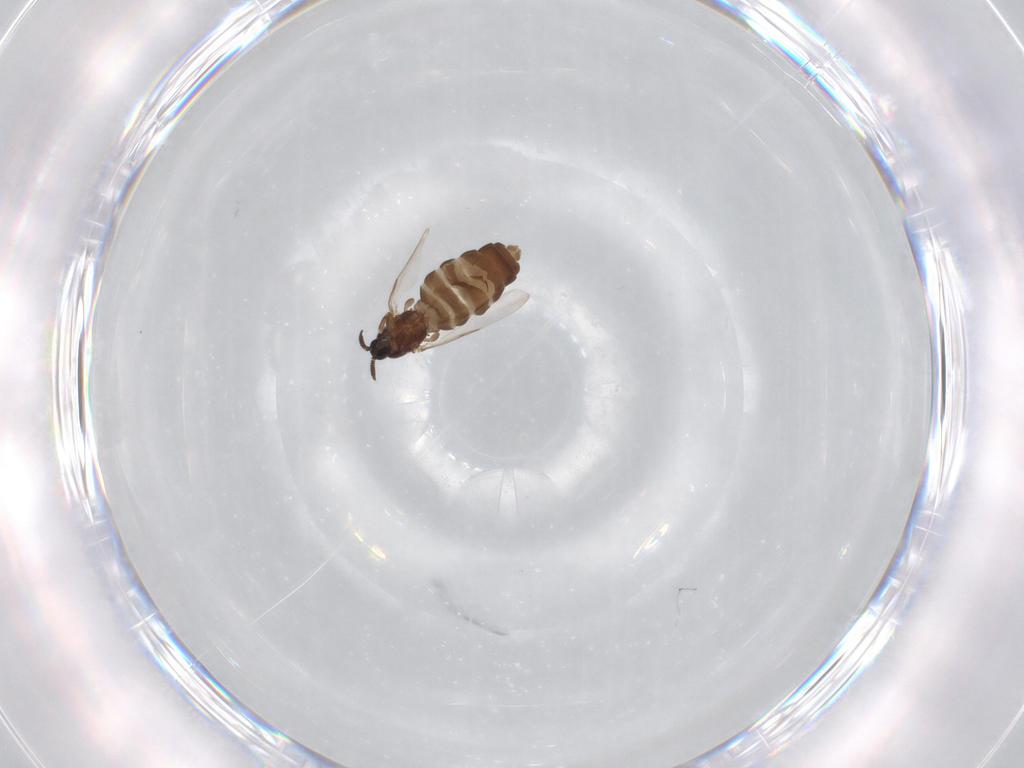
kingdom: Animalia
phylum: Arthropoda
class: Insecta
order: Diptera
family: Scatopsidae
